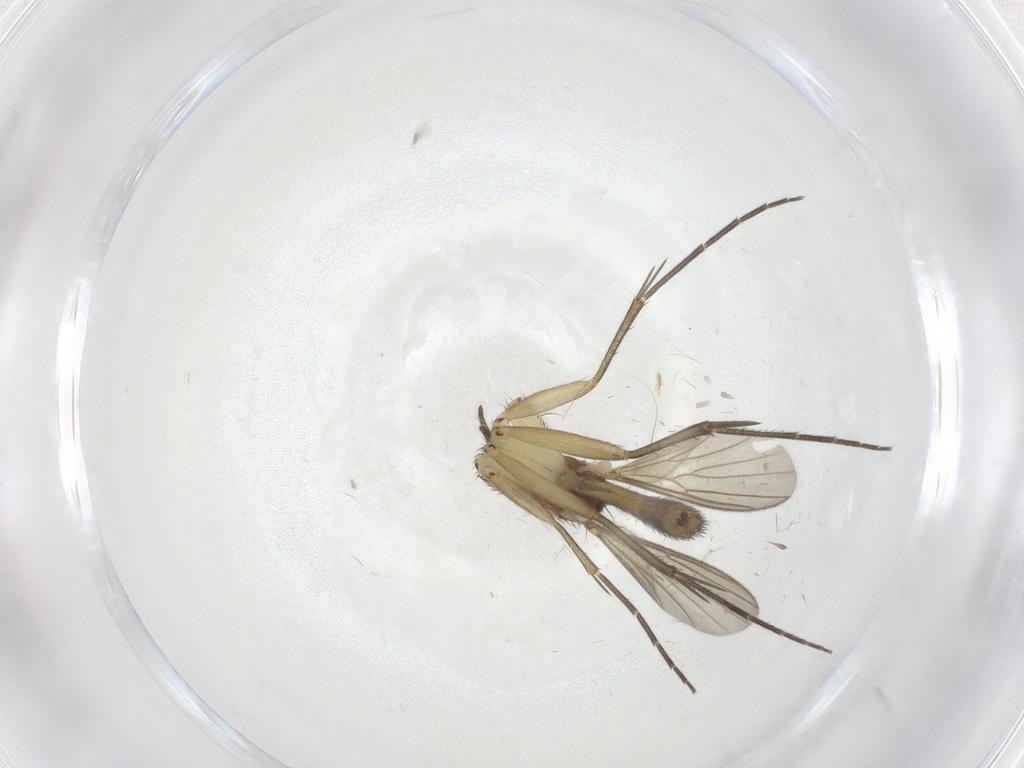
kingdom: Animalia
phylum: Arthropoda
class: Insecta
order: Diptera
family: Mycetophilidae
